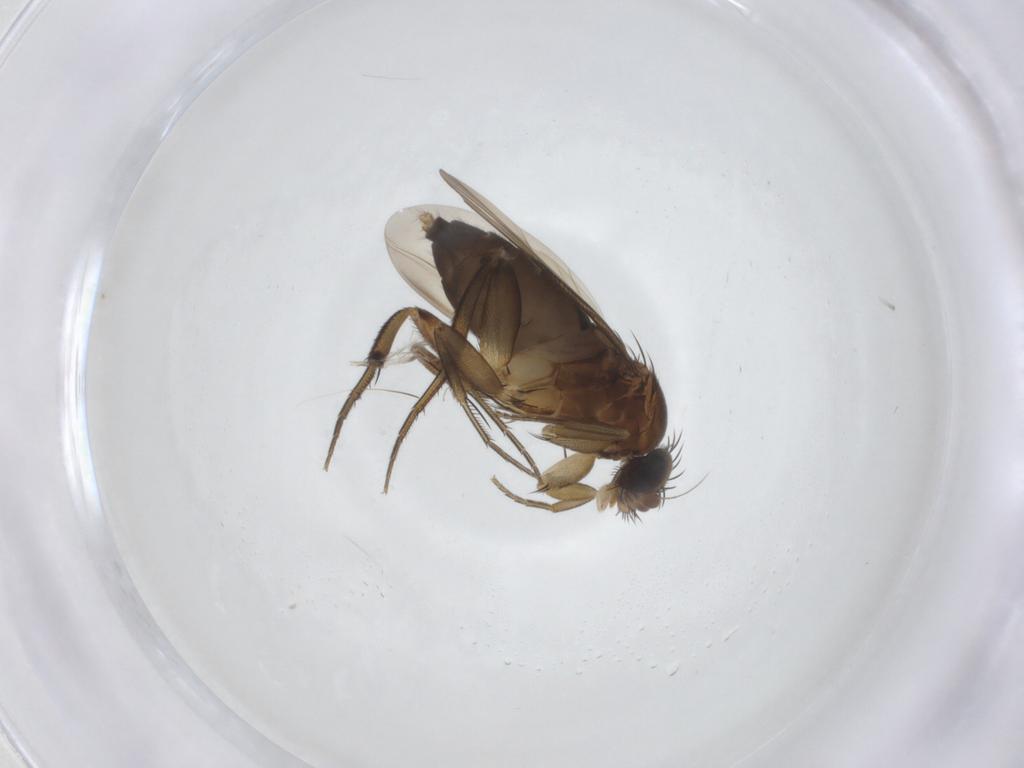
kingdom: Animalia
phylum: Arthropoda
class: Insecta
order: Diptera
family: Phoridae
